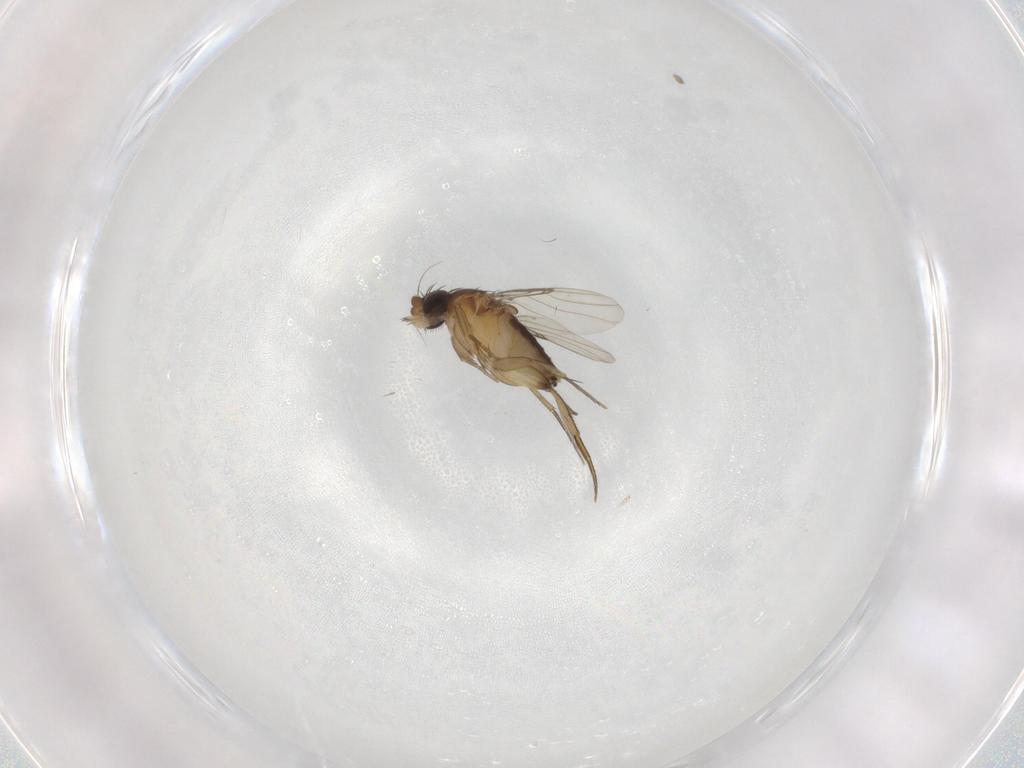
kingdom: Animalia
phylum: Arthropoda
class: Insecta
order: Diptera
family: Phoridae
